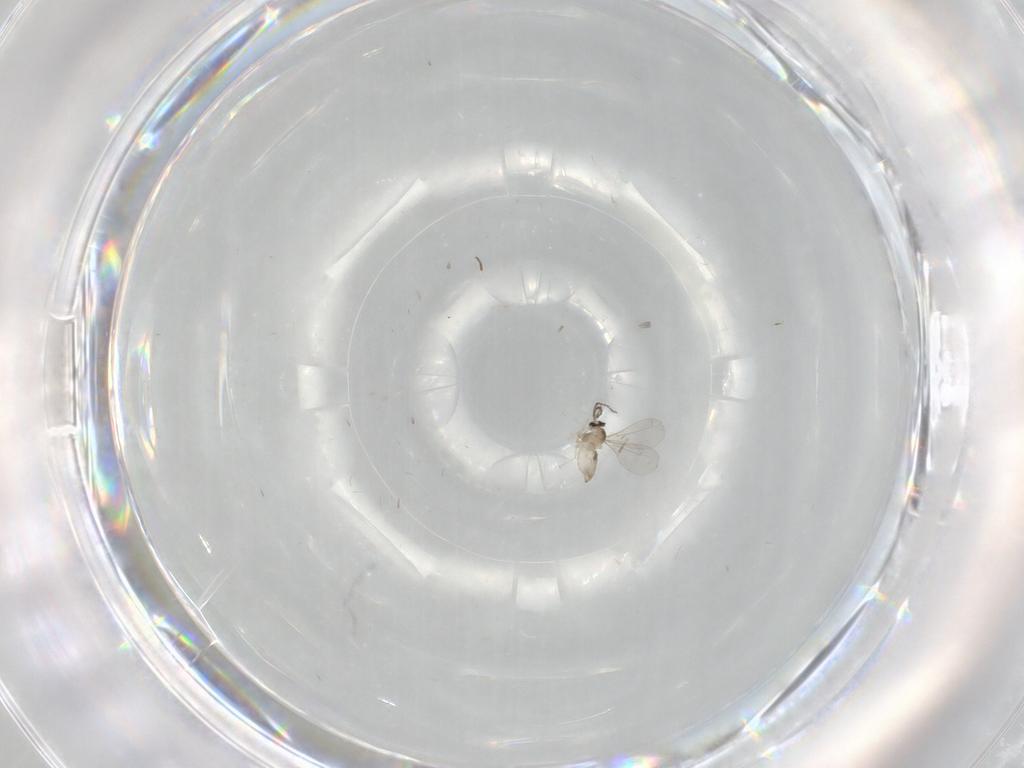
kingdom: Animalia
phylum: Arthropoda
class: Insecta
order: Diptera
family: Cecidomyiidae
